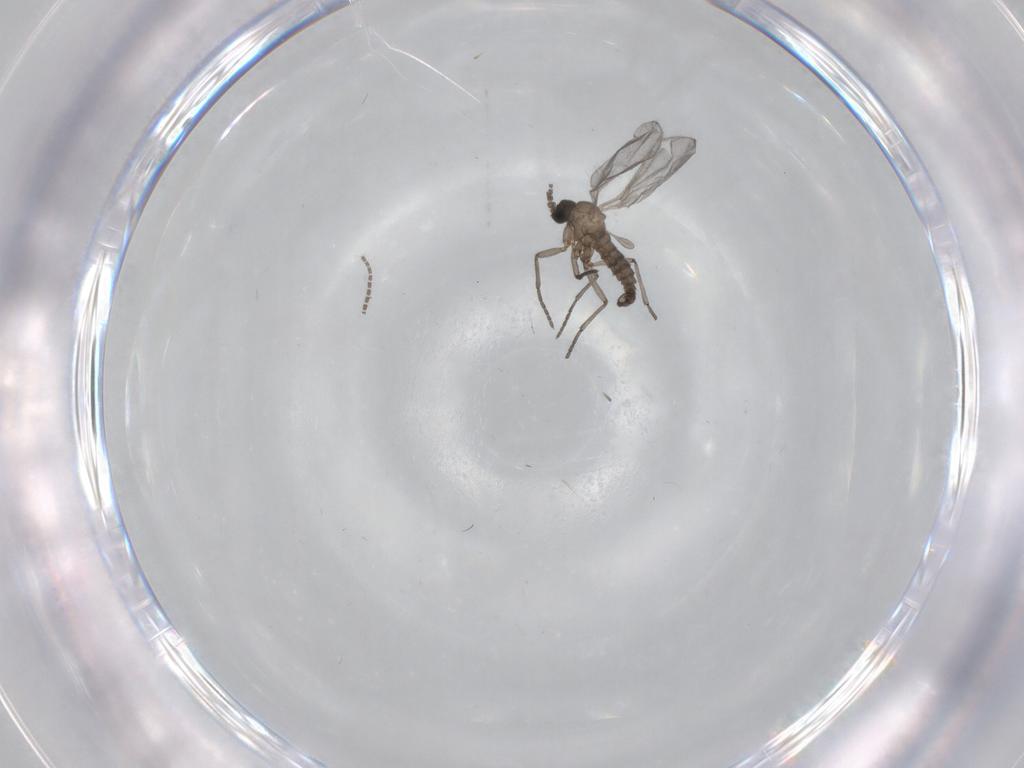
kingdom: Animalia
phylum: Arthropoda
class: Insecta
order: Diptera
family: Sciaridae
